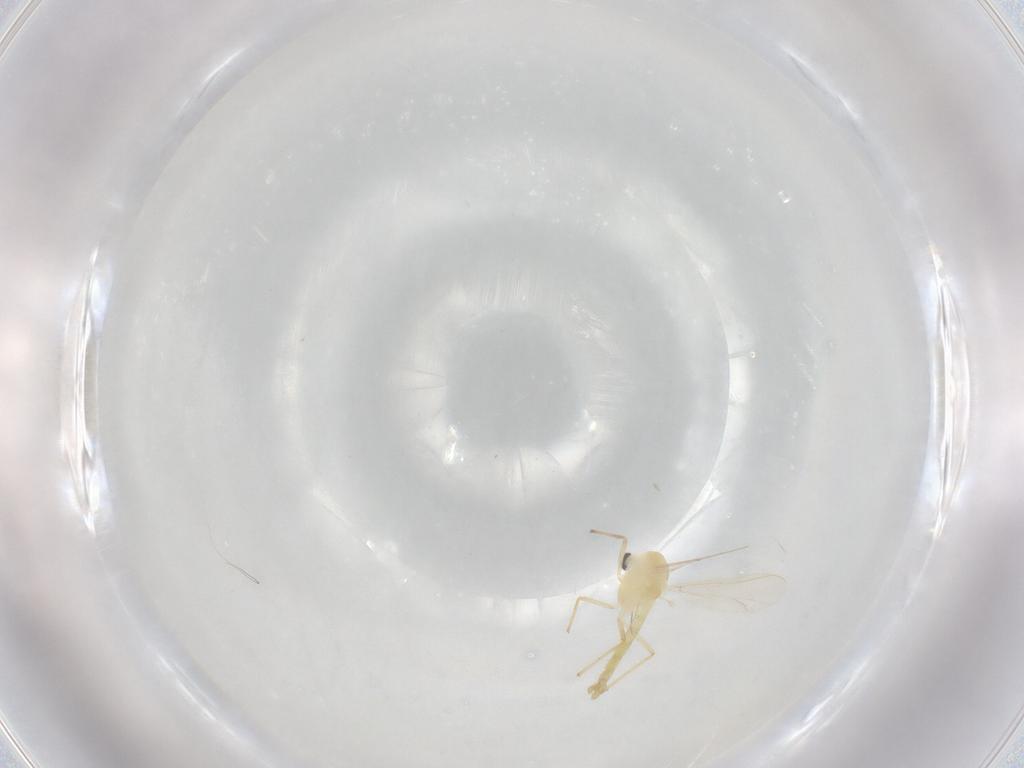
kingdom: Animalia
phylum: Arthropoda
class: Insecta
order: Diptera
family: Chironomidae
